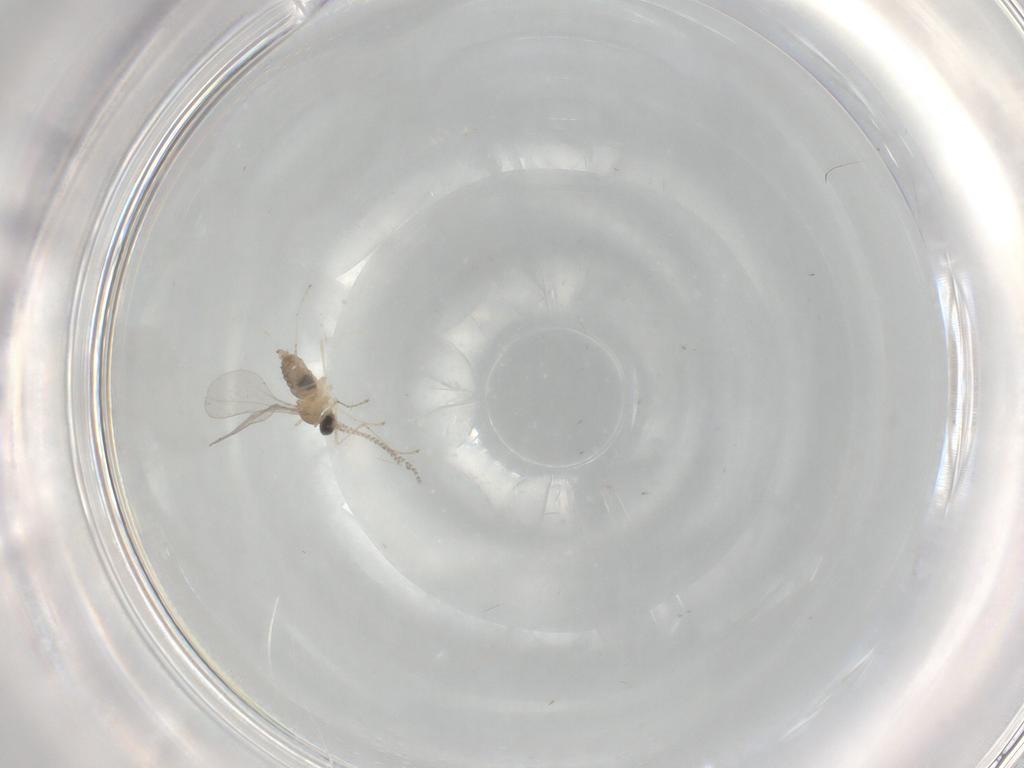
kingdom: Animalia
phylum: Arthropoda
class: Insecta
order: Diptera
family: Cecidomyiidae
